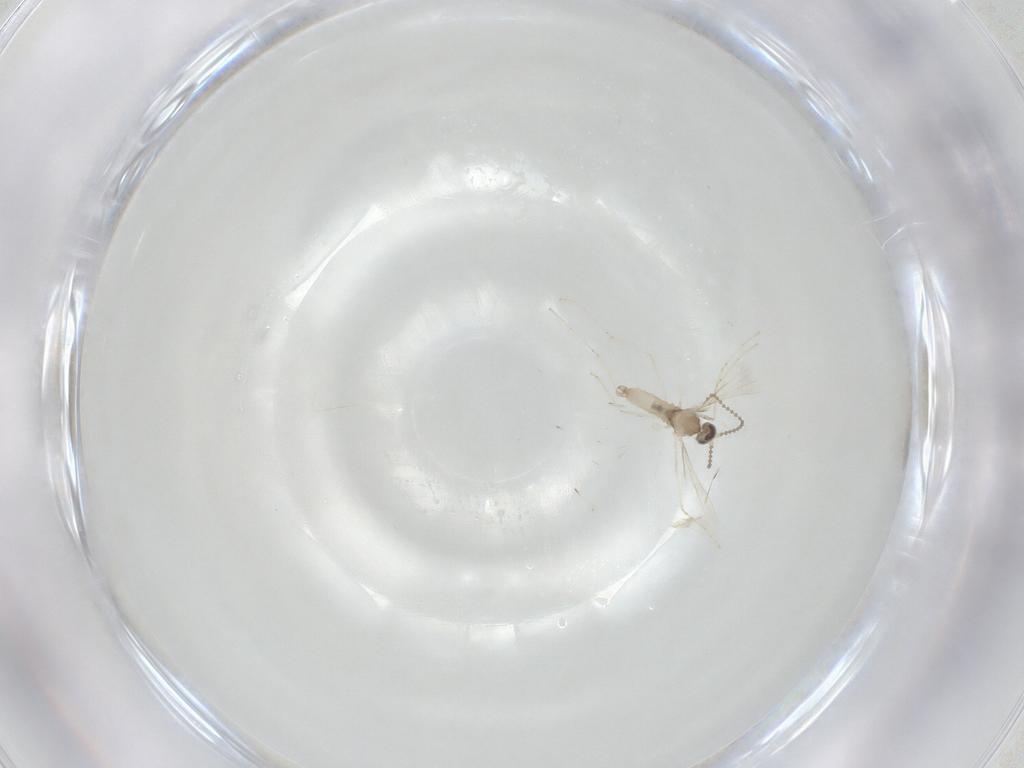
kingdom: Animalia
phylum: Arthropoda
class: Insecta
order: Diptera
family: Cecidomyiidae
